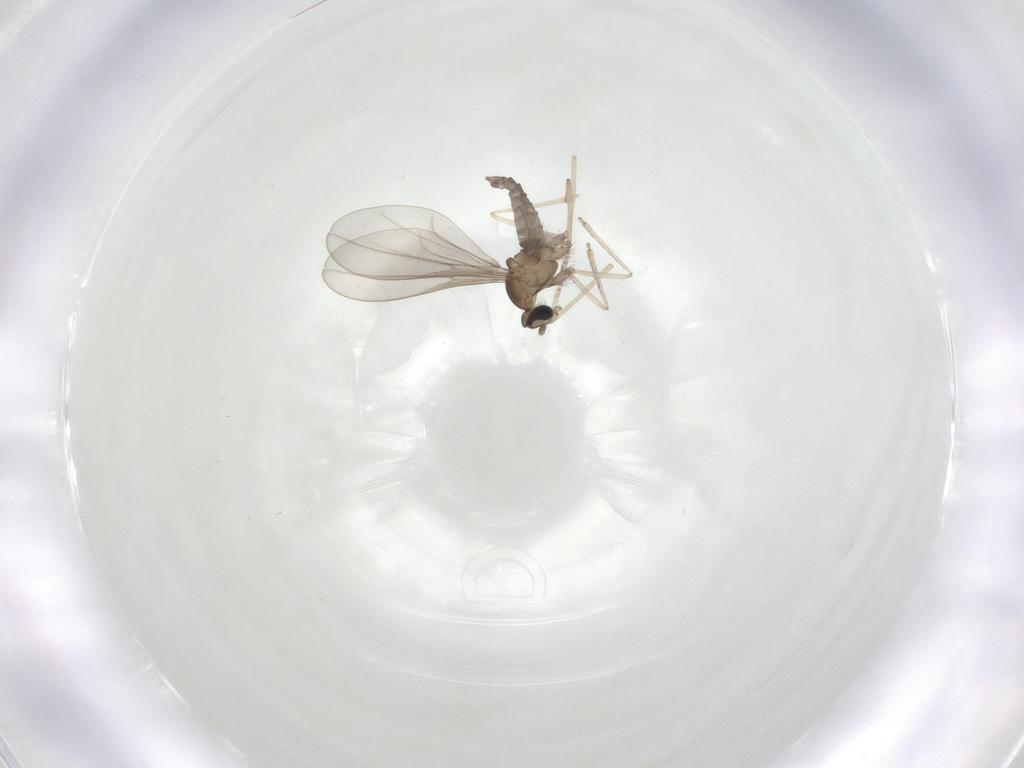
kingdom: Animalia
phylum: Arthropoda
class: Insecta
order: Diptera
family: Cecidomyiidae
